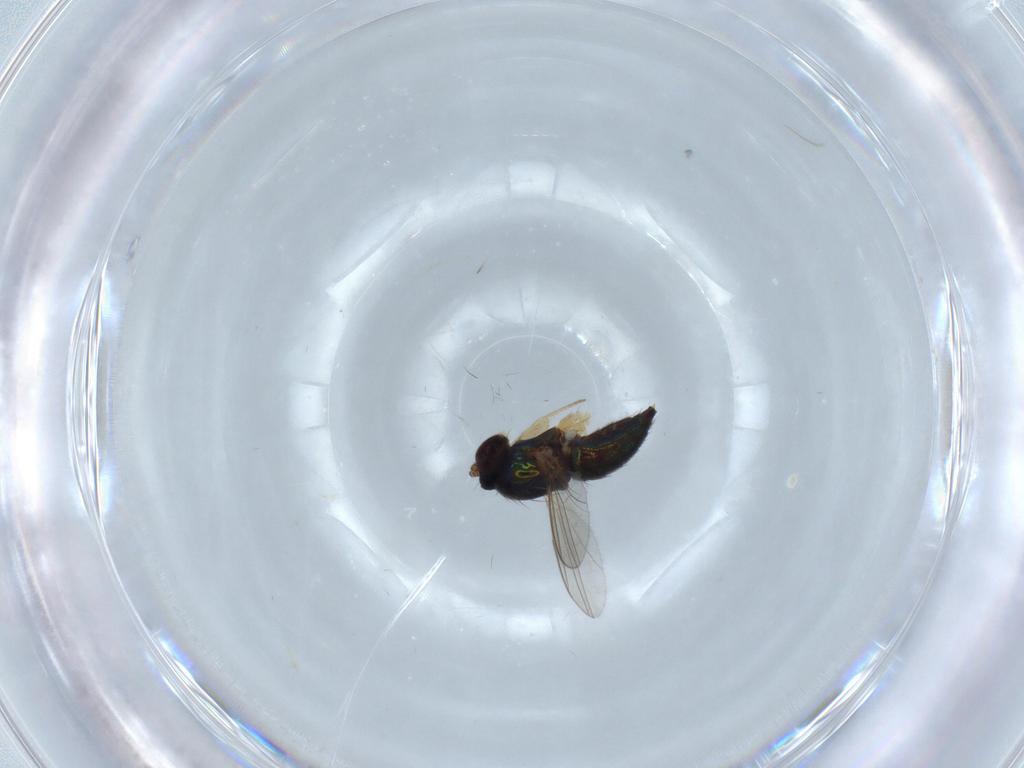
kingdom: Animalia
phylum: Arthropoda
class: Insecta
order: Diptera
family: Dolichopodidae
